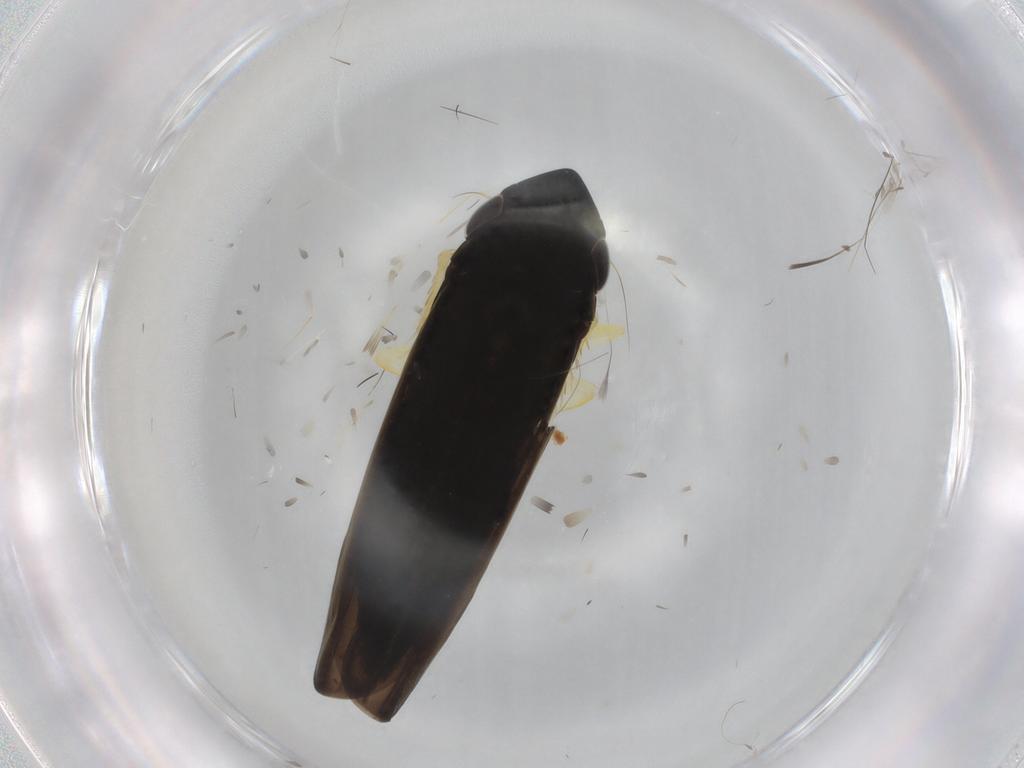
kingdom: Animalia
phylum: Arthropoda
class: Insecta
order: Hemiptera
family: Cicadellidae
